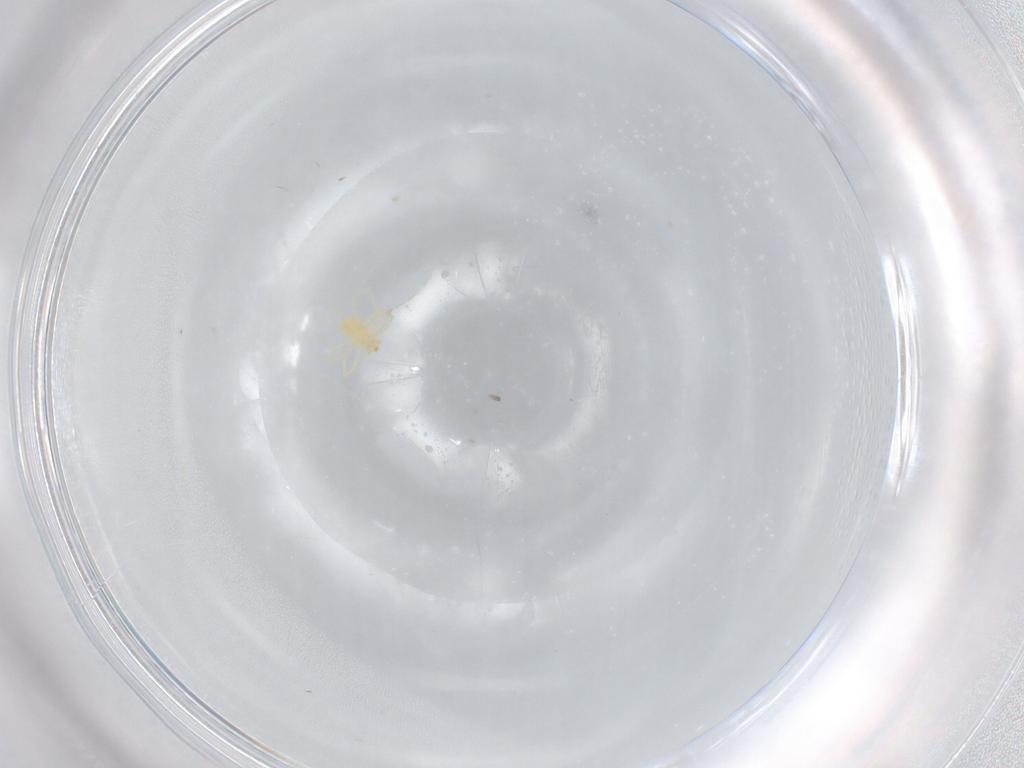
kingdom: Animalia
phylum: Arthropoda
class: Arachnida
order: Trombidiformes
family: Erythraeidae
